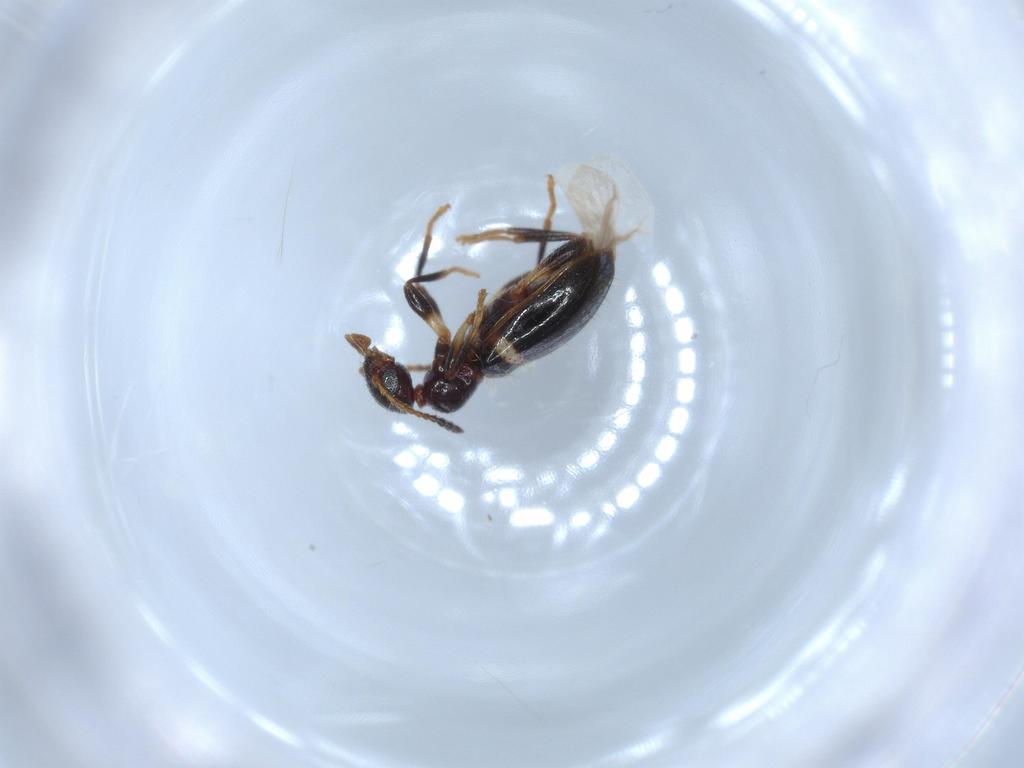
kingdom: Animalia
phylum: Arthropoda
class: Insecta
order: Coleoptera
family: Anthicidae
